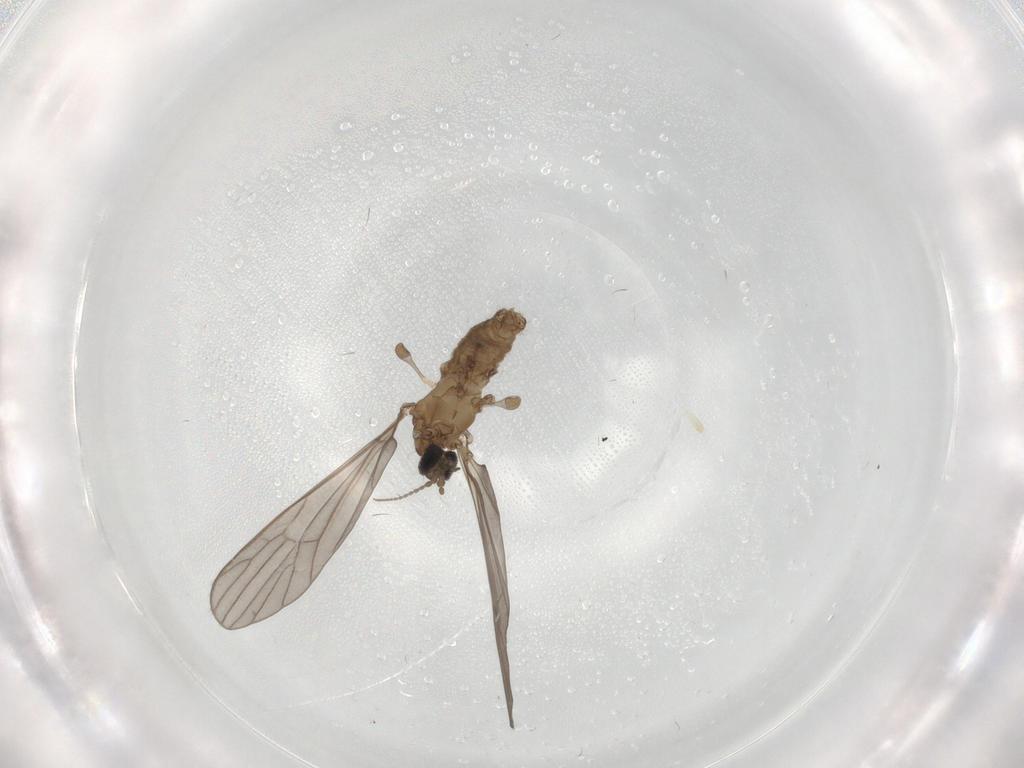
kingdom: Animalia
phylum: Arthropoda
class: Insecta
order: Diptera
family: Limoniidae
